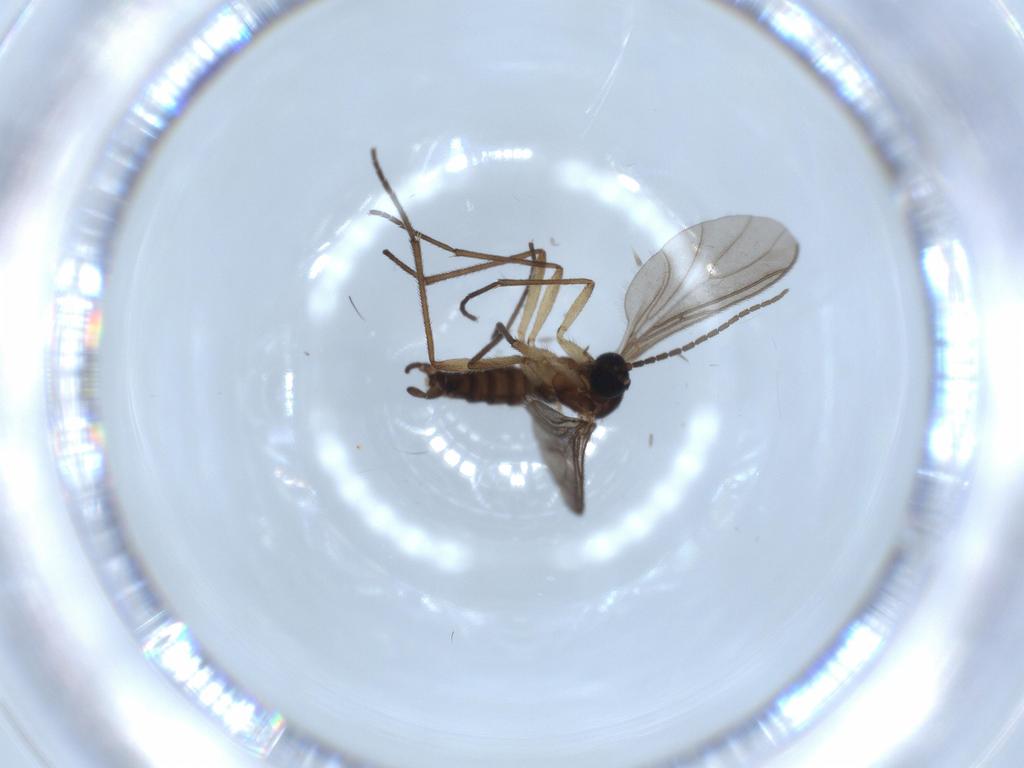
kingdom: Animalia
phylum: Arthropoda
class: Insecta
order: Diptera
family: Sciaridae
